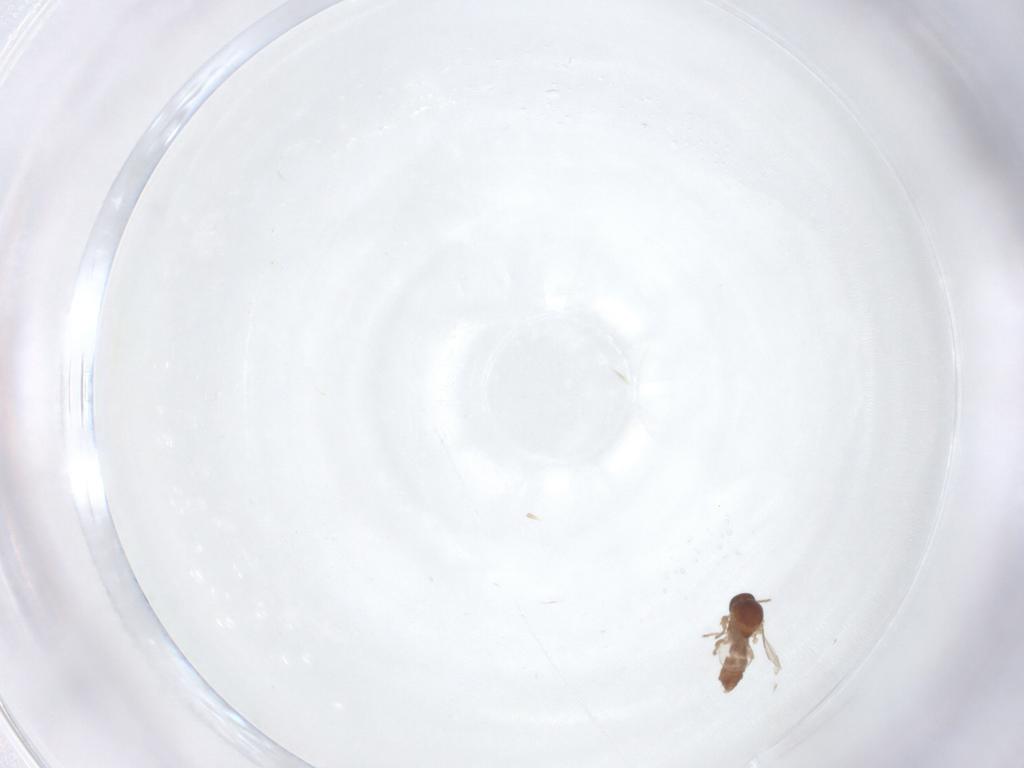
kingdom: Animalia
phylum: Arthropoda
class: Insecta
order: Diptera
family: Ceratopogonidae
